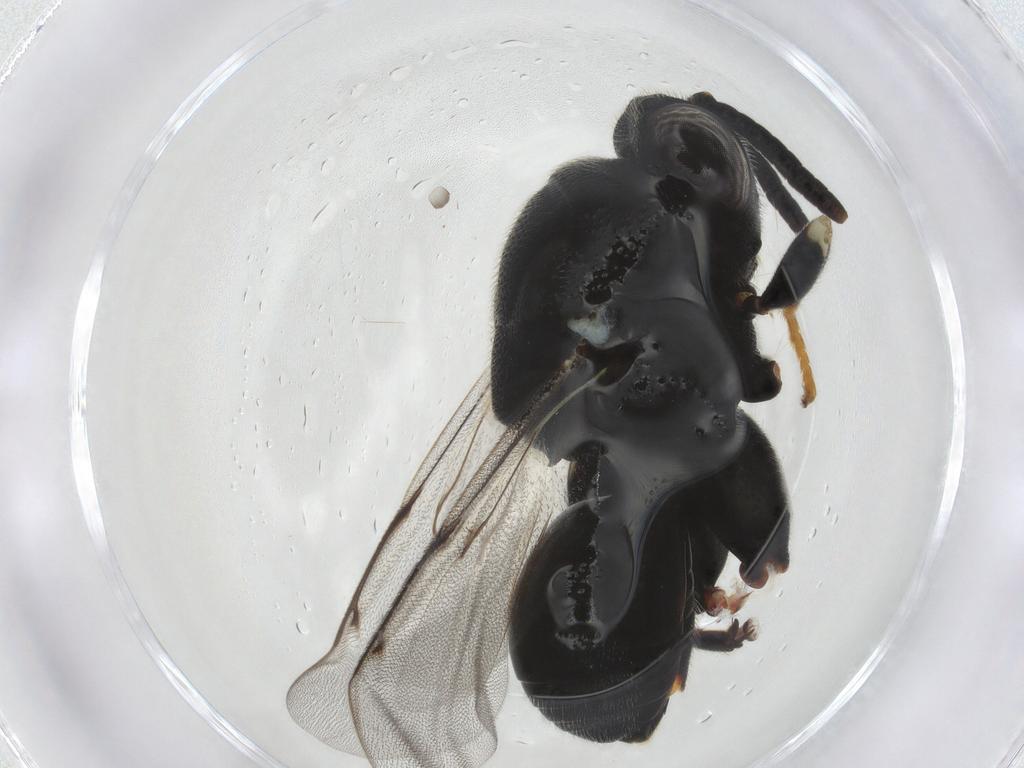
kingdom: Animalia
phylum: Arthropoda
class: Insecta
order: Hymenoptera
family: Chalcididae
